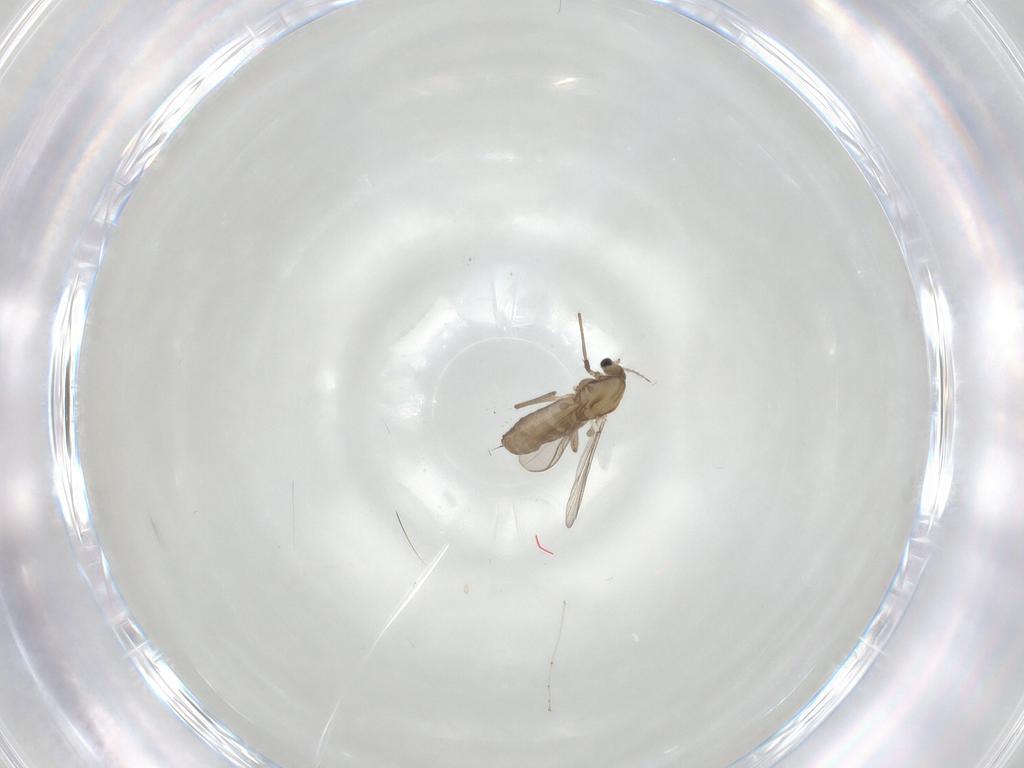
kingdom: Animalia
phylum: Arthropoda
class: Insecta
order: Diptera
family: Chironomidae
